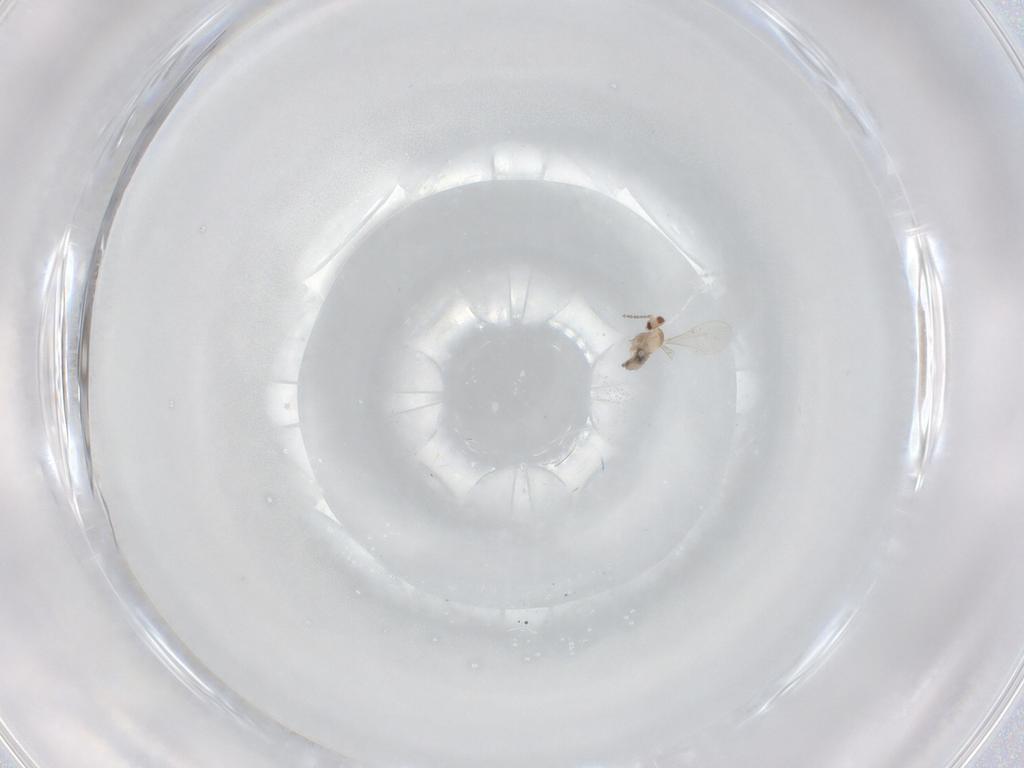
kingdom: Animalia
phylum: Arthropoda
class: Insecta
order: Diptera
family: Cecidomyiidae
